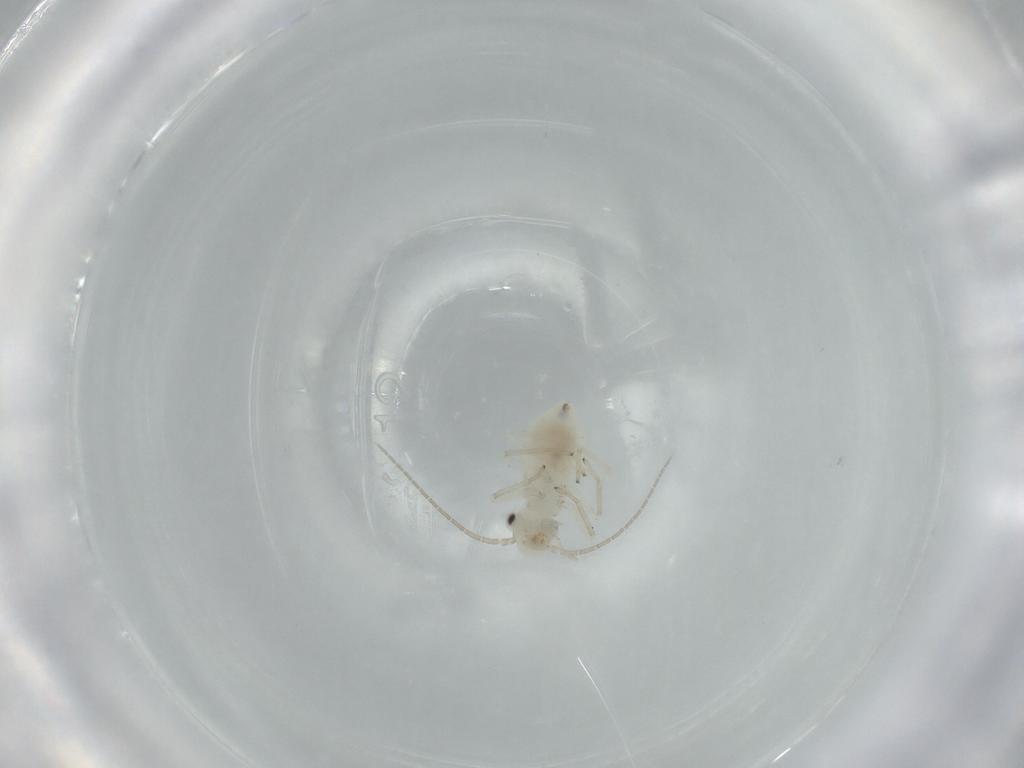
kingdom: Animalia
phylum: Arthropoda
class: Insecta
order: Psocodea
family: Caeciliusidae
